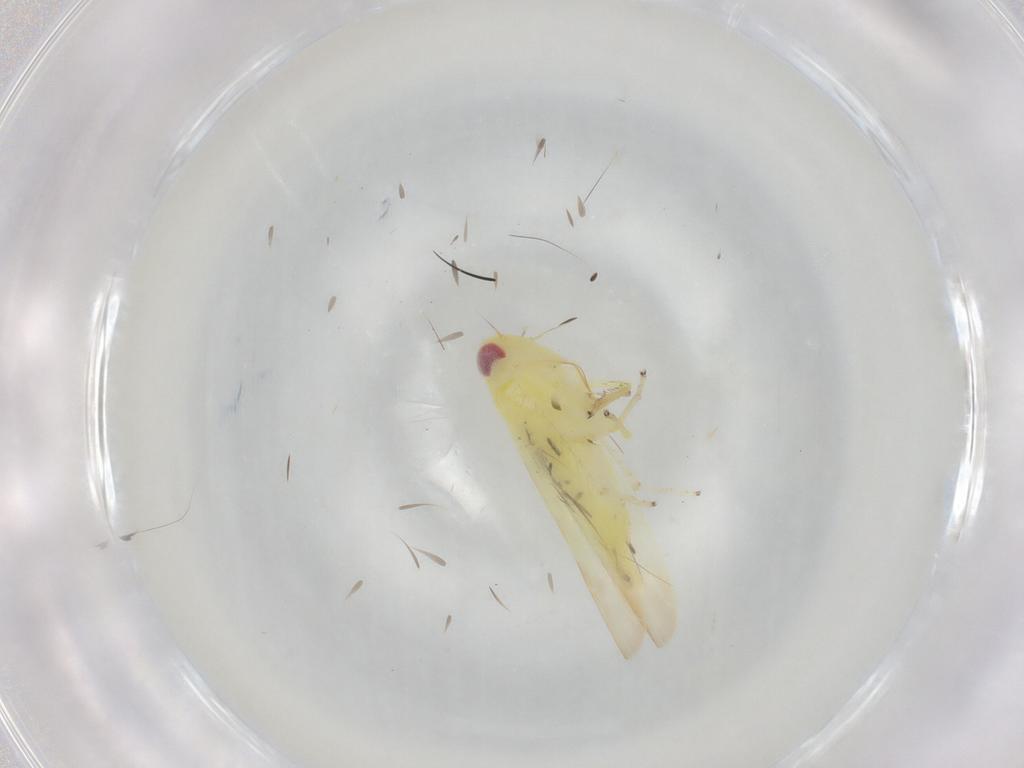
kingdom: Animalia
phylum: Arthropoda
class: Insecta
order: Hemiptera
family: Cicadellidae
